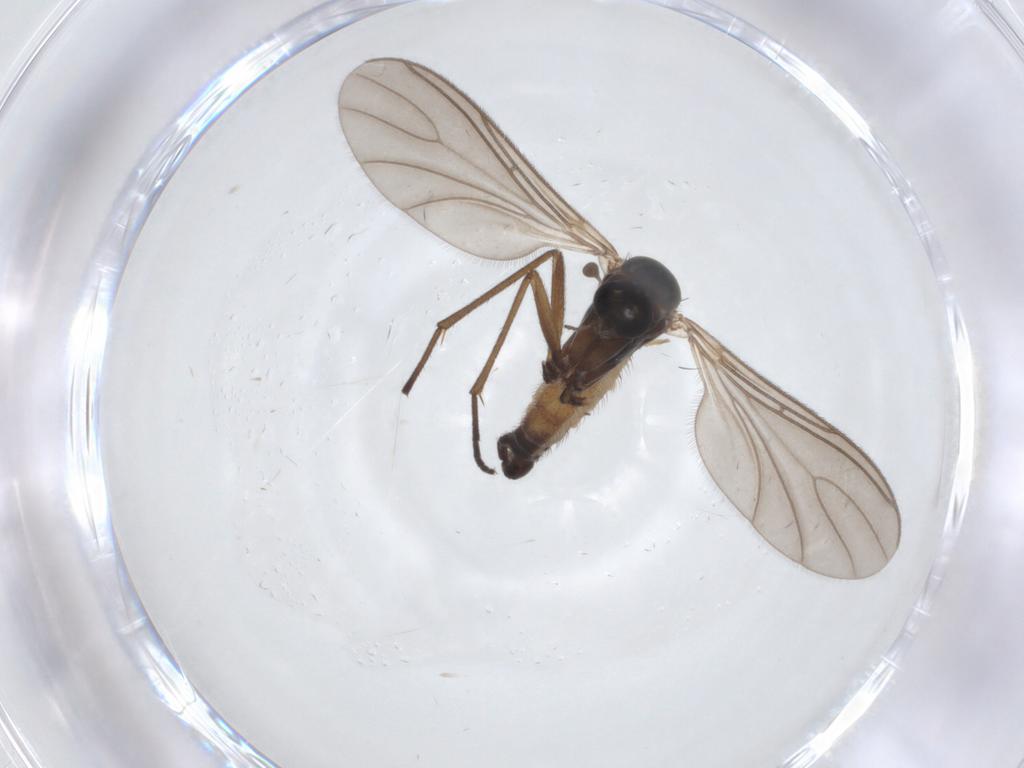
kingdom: Animalia
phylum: Arthropoda
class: Insecta
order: Diptera
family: Sciaridae
